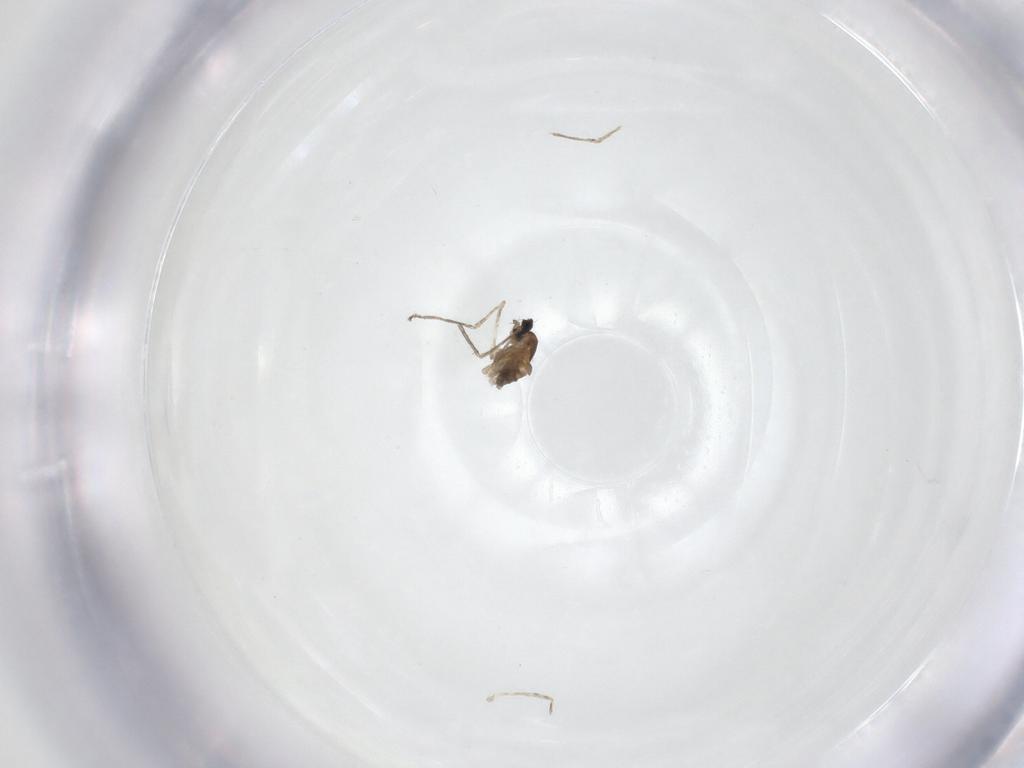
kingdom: Animalia
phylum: Arthropoda
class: Insecta
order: Diptera
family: Cecidomyiidae
